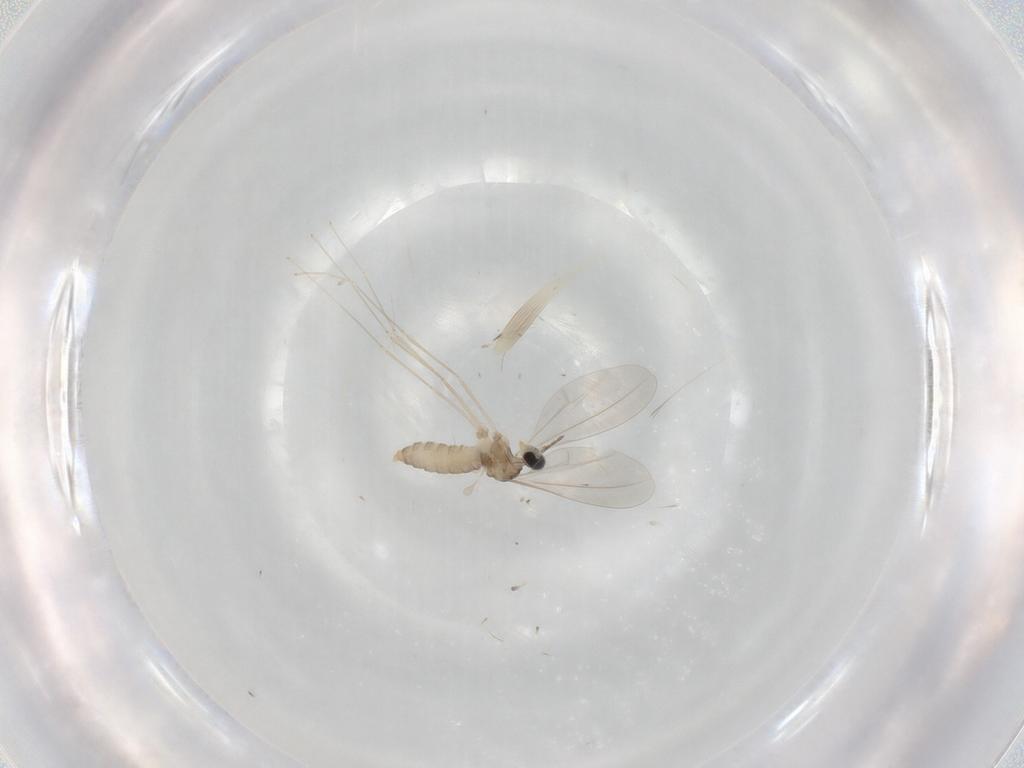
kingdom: Animalia
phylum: Arthropoda
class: Insecta
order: Diptera
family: Cecidomyiidae
